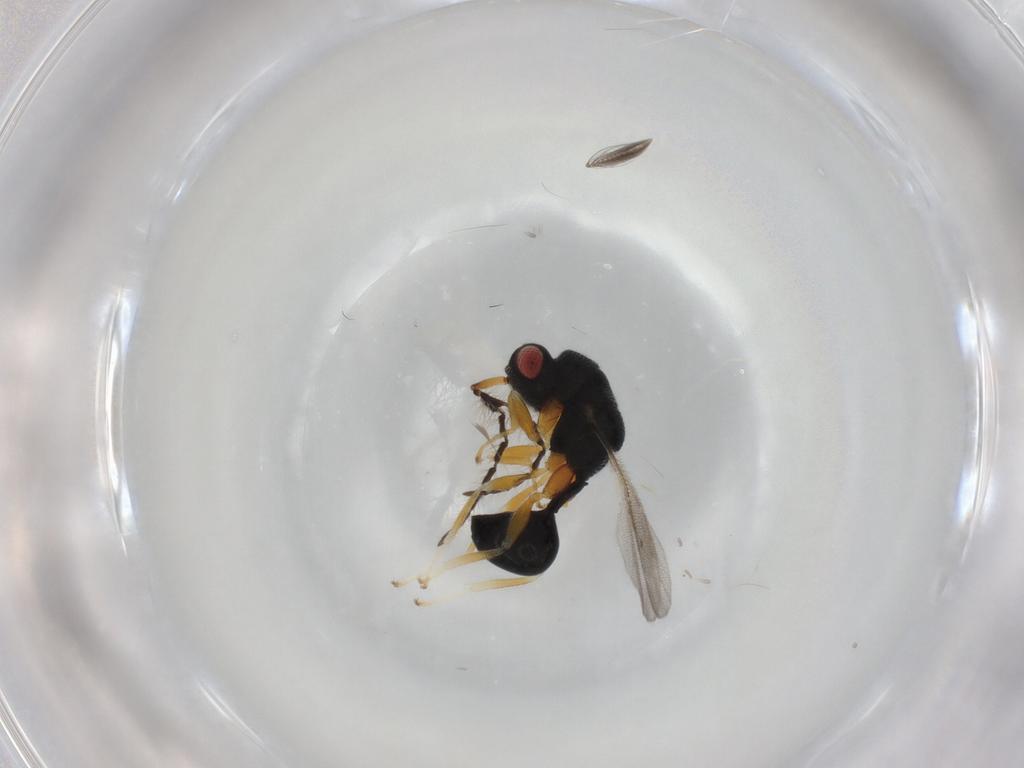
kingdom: Animalia
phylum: Arthropoda
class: Insecta
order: Hymenoptera
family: Eurytomidae
